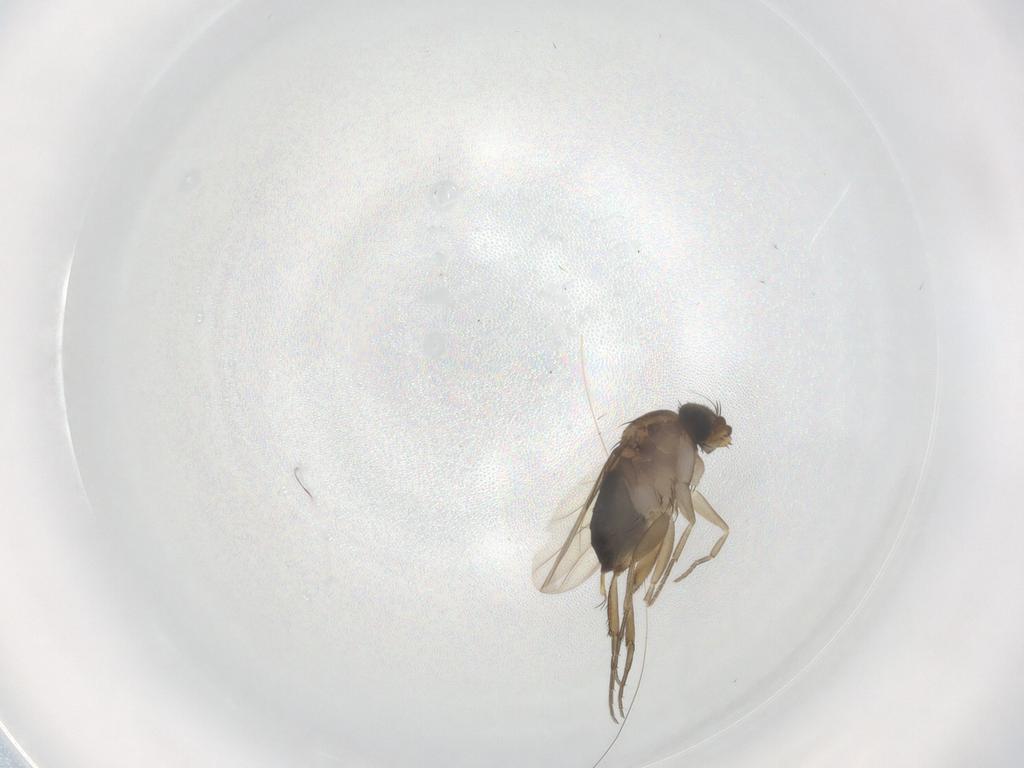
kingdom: Animalia
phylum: Arthropoda
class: Insecta
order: Diptera
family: Phoridae
